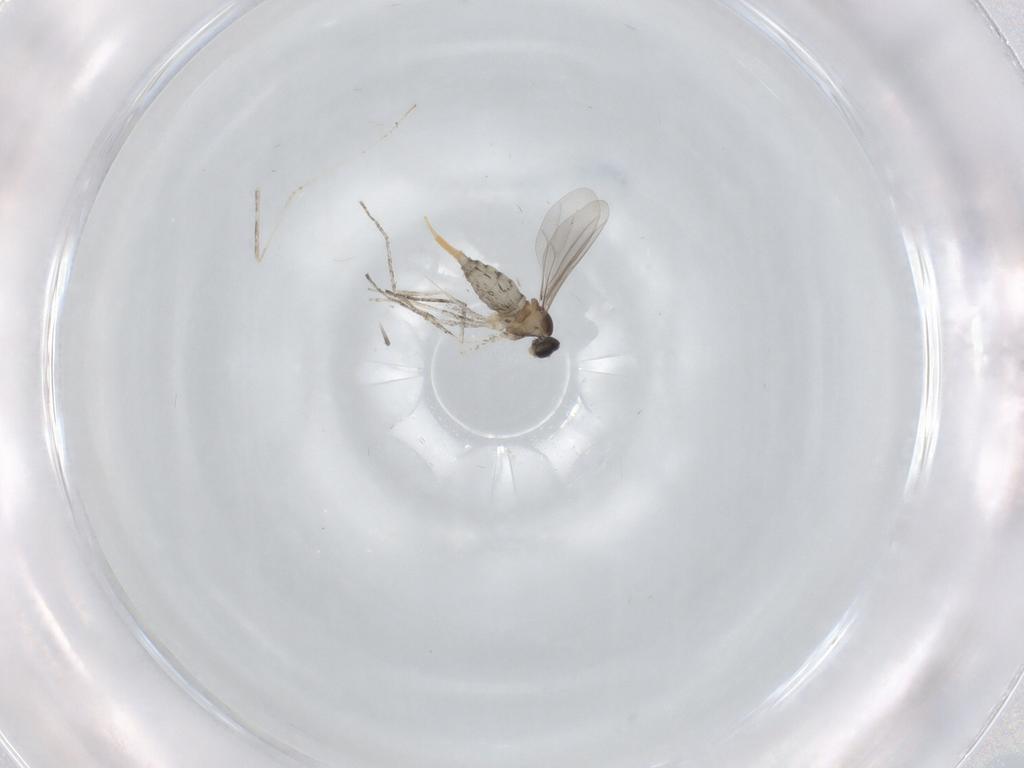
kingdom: Animalia
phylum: Arthropoda
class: Insecta
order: Diptera
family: Cecidomyiidae
